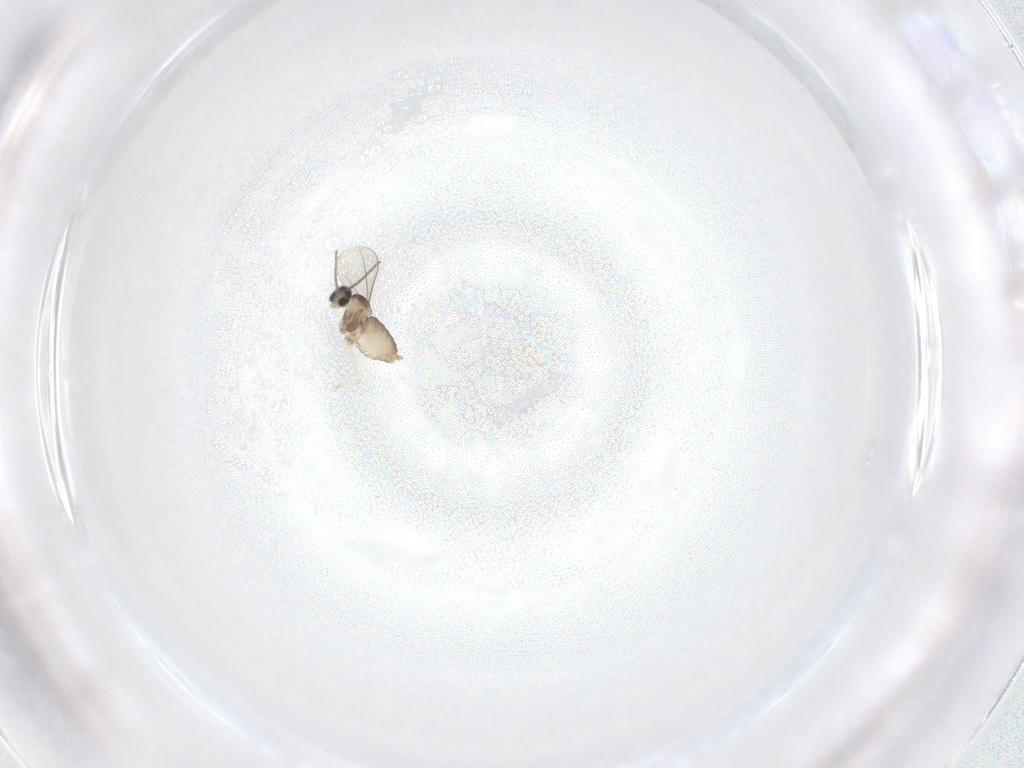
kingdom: Animalia
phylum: Arthropoda
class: Insecta
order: Diptera
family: Cecidomyiidae
